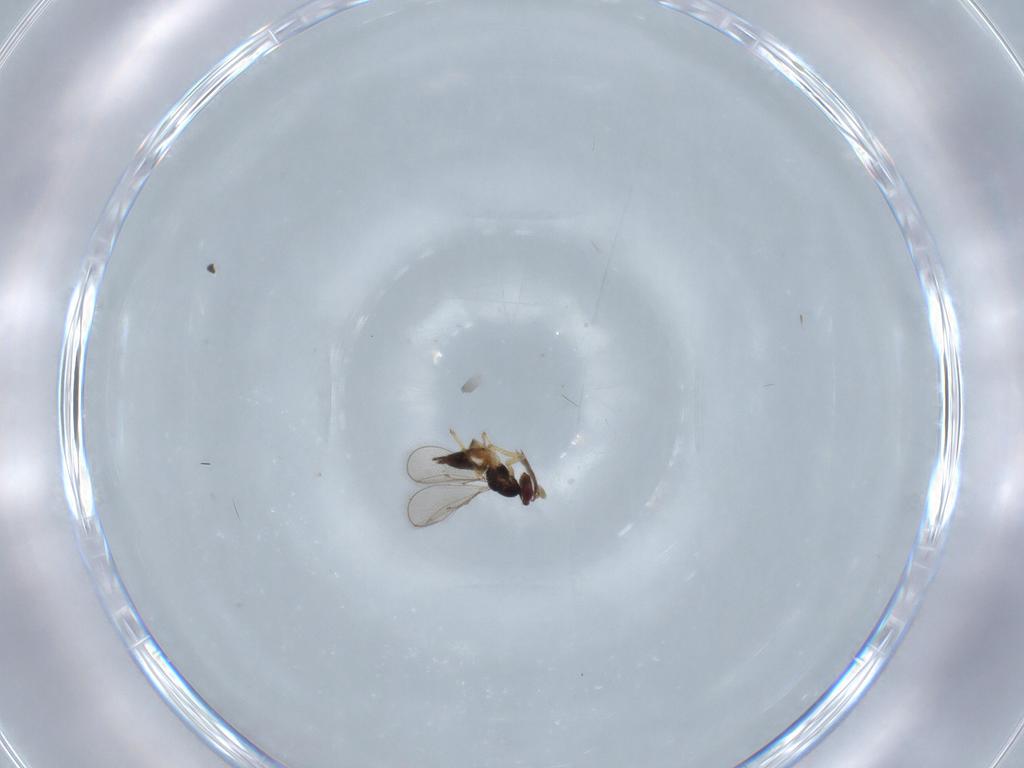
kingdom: Animalia
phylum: Arthropoda
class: Insecta
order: Hymenoptera
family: Eulophidae
